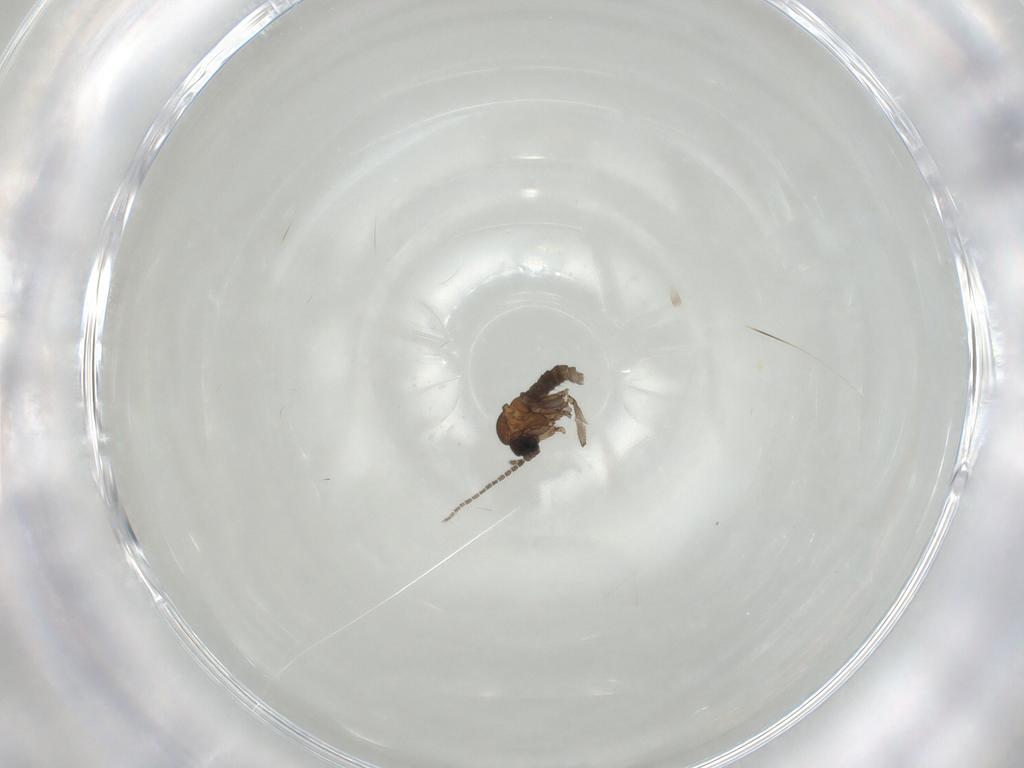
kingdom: Animalia
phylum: Arthropoda
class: Insecta
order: Diptera
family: Sciaridae
